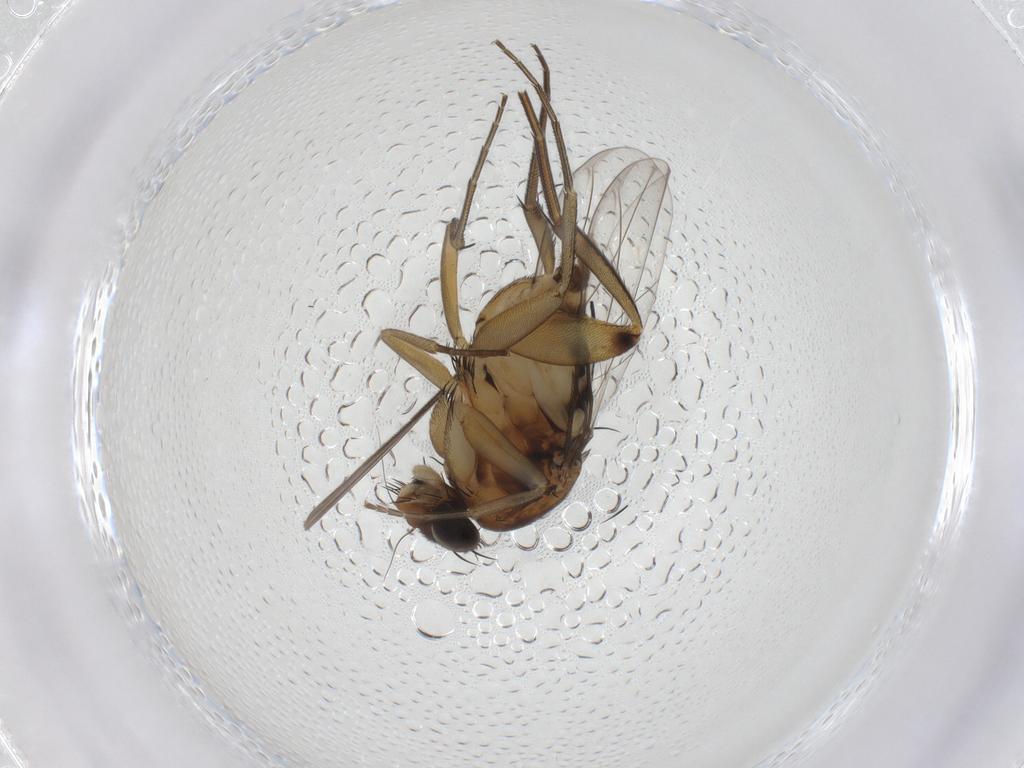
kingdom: Animalia
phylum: Arthropoda
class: Insecta
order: Diptera
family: Phoridae
